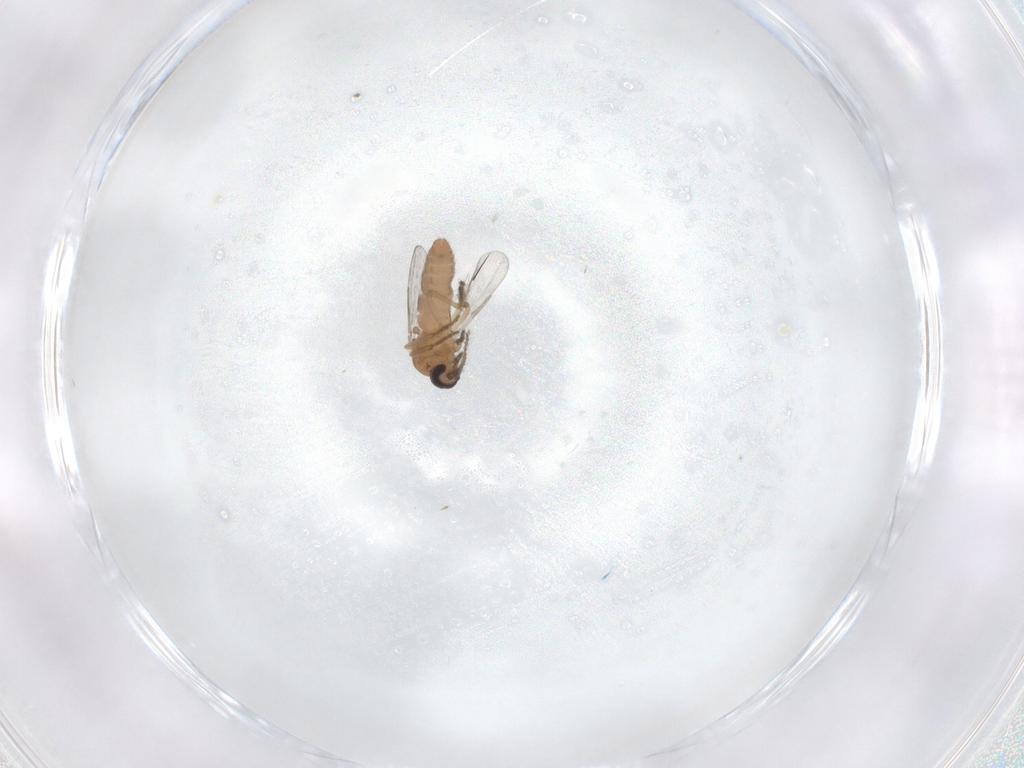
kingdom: Animalia
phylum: Arthropoda
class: Insecta
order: Diptera
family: Ceratopogonidae
